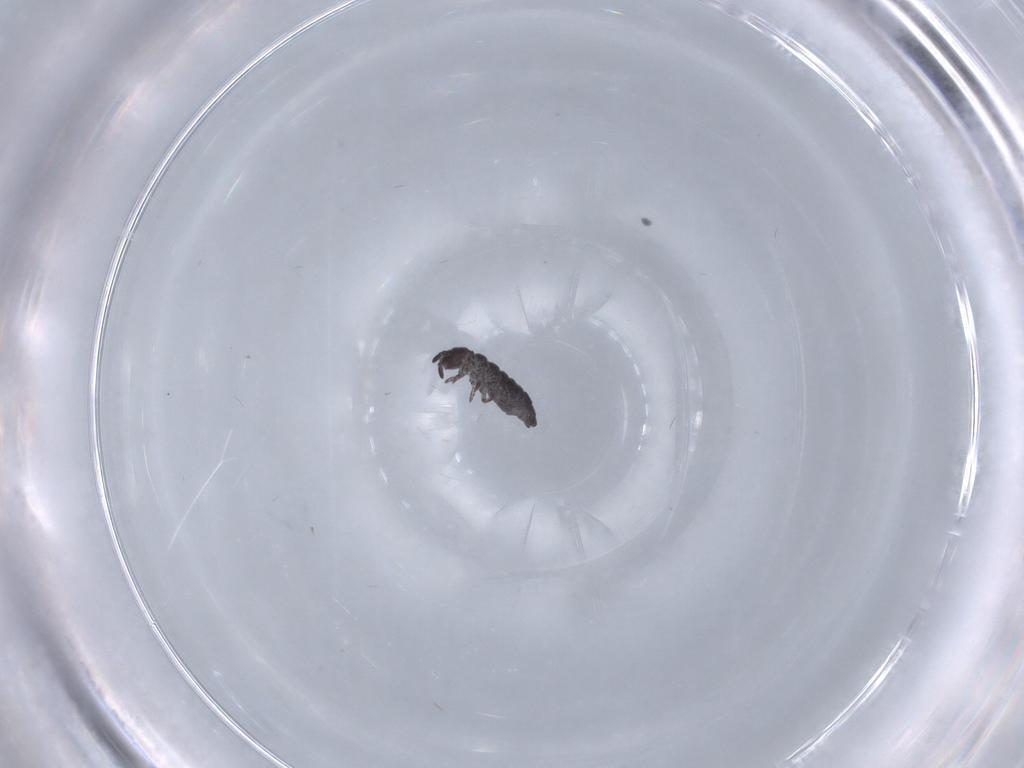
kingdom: Animalia
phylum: Arthropoda
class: Collembola
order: Poduromorpha
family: Hypogastruridae
